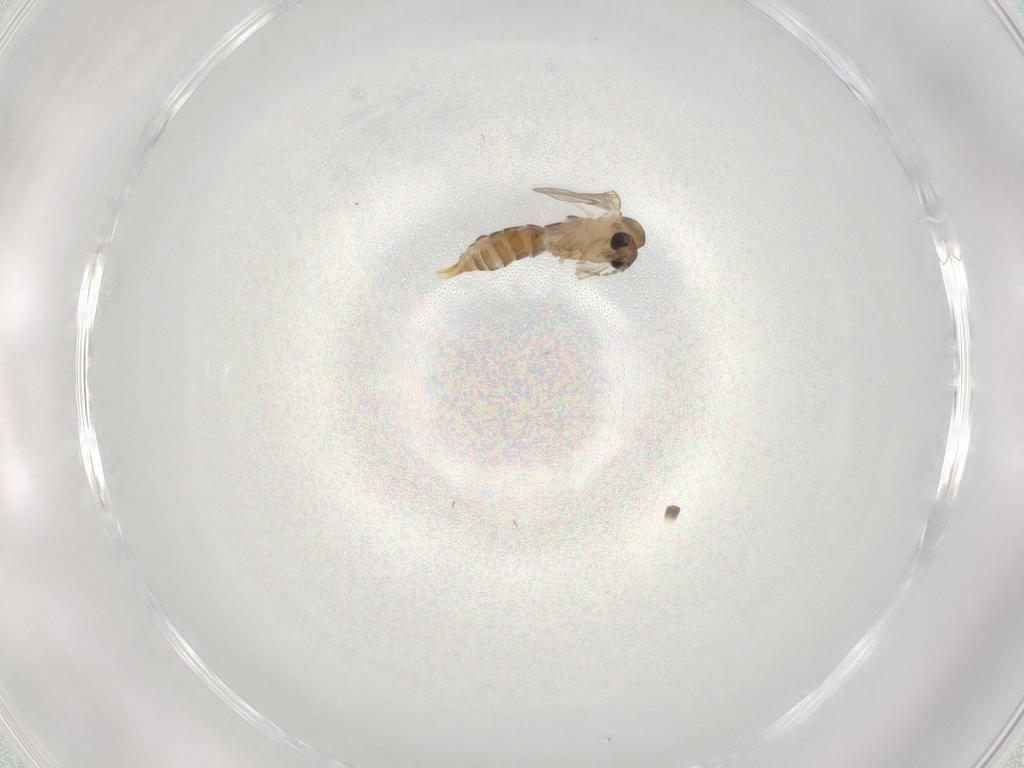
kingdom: Animalia
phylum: Arthropoda
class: Insecta
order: Diptera
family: Psychodidae
